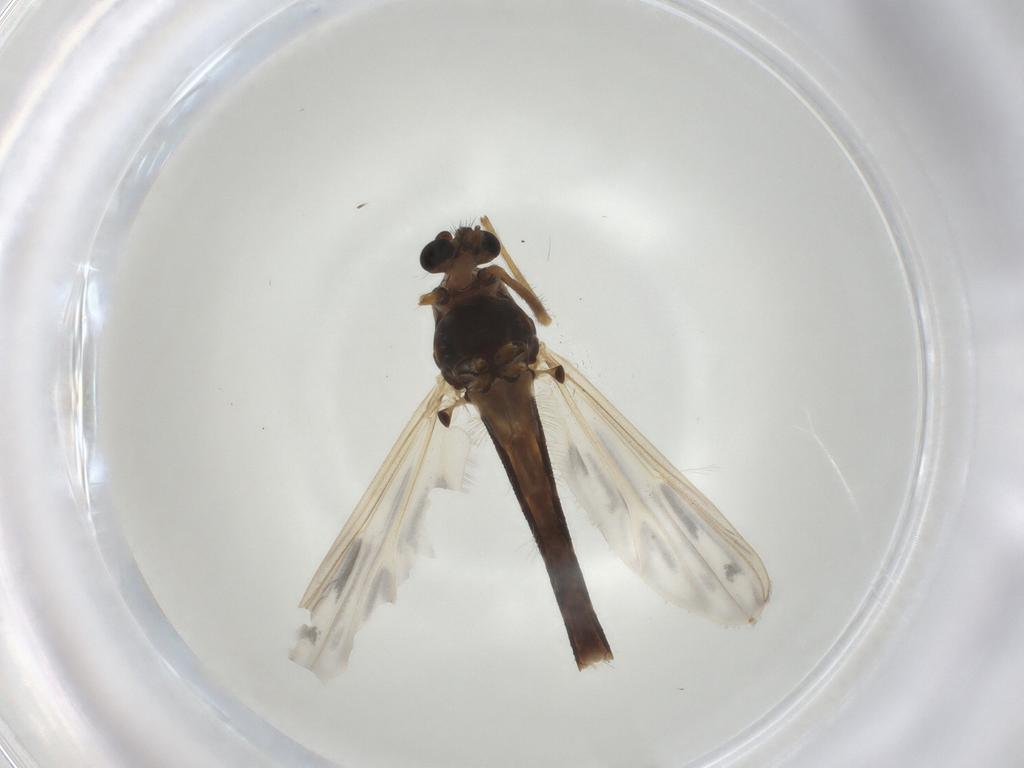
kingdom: Animalia
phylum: Arthropoda
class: Insecta
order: Diptera
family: Chironomidae
